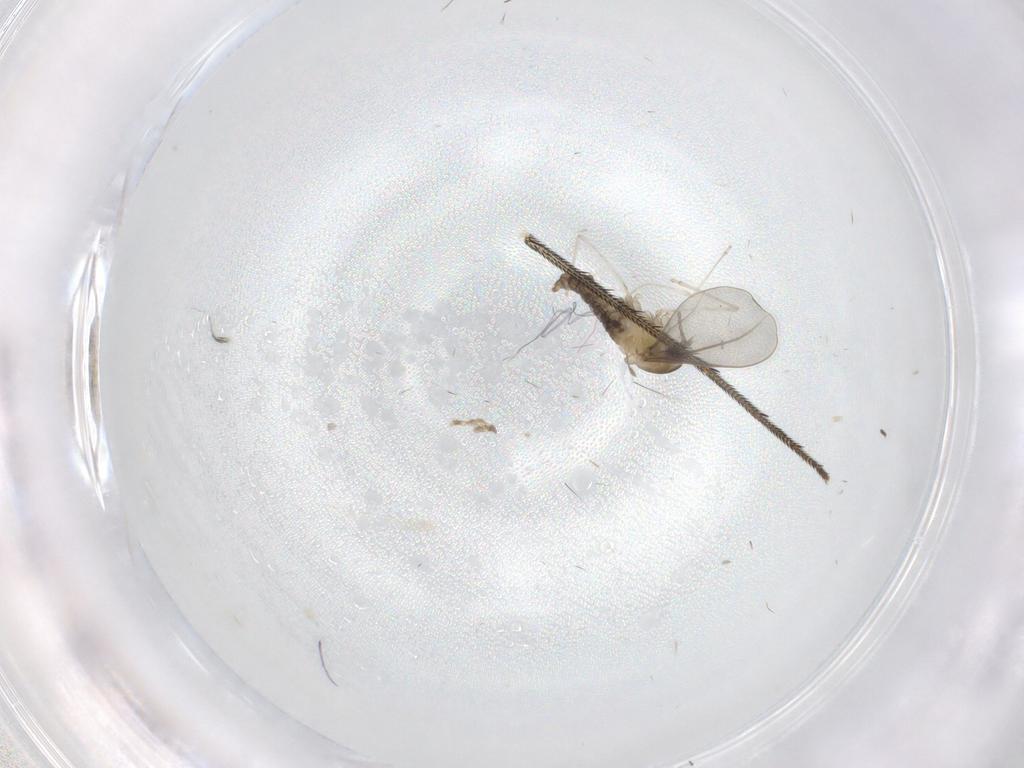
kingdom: Animalia
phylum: Arthropoda
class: Insecta
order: Diptera
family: Cecidomyiidae
